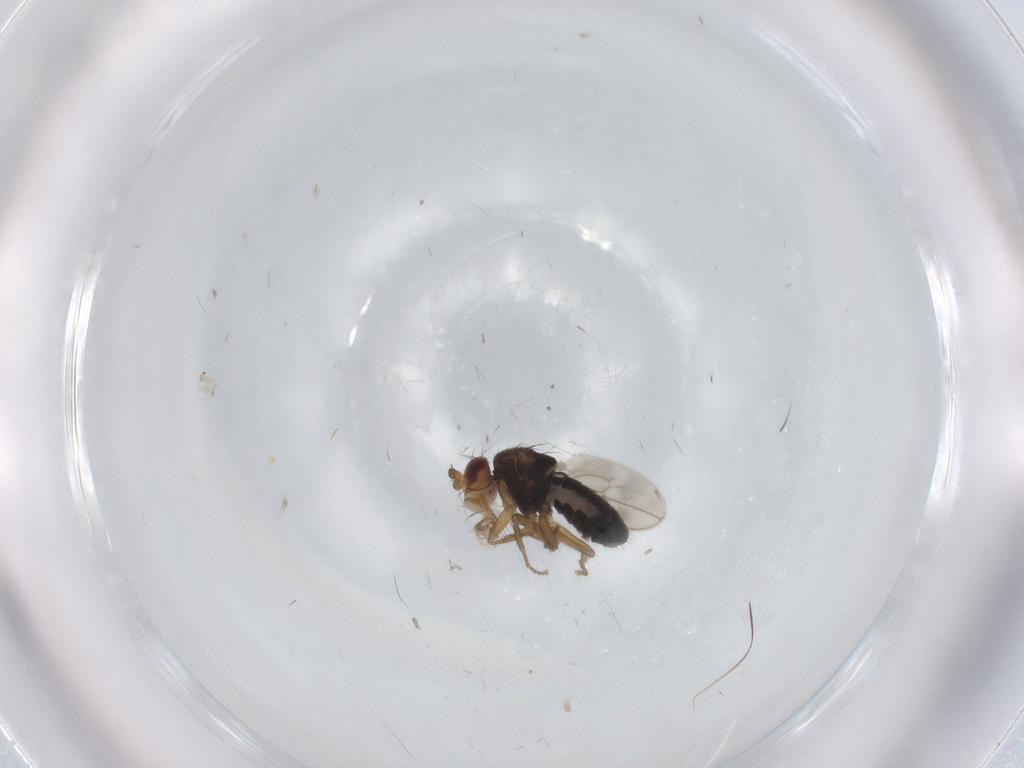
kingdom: Animalia
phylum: Arthropoda
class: Insecta
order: Diptera
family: Sphaeroceridae
